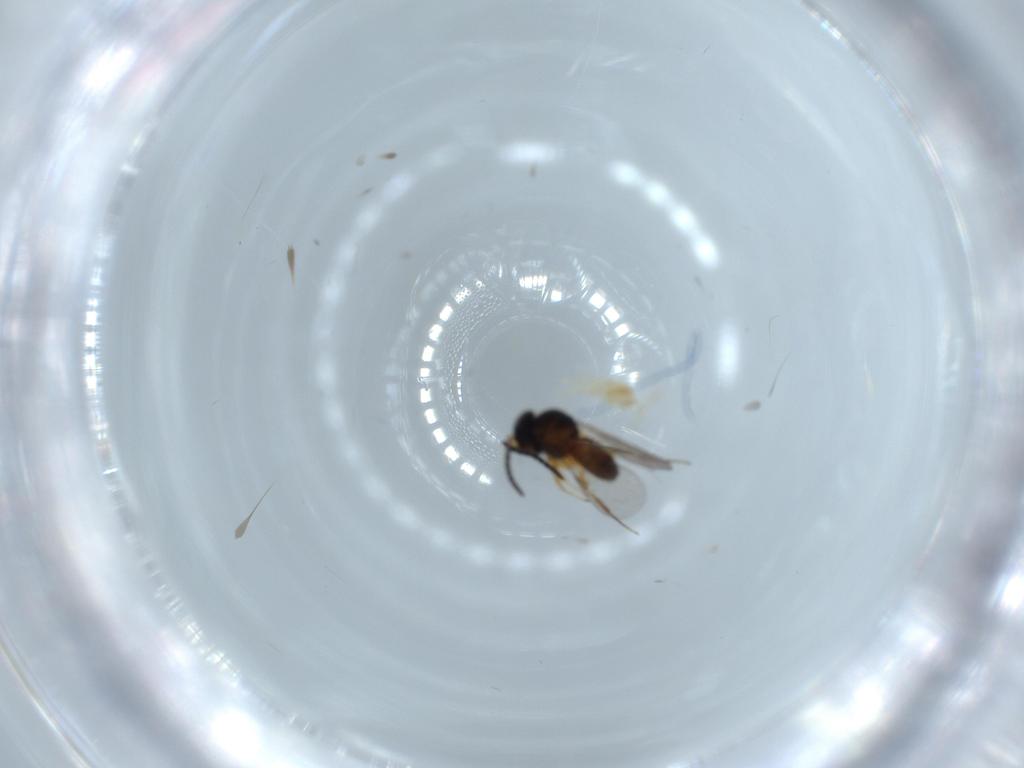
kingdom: Animalia
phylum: Arthropoda
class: Insecta
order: Hymenoptera
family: Scelionidae
